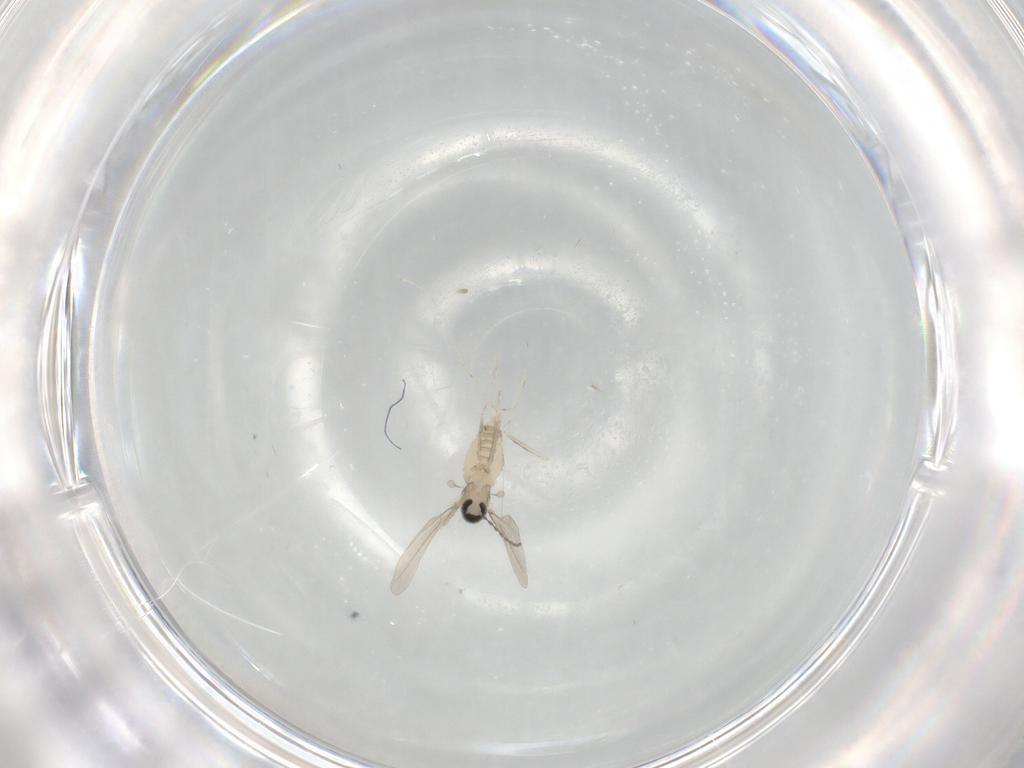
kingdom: Animalia
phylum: Arthropoda
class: Insecta
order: Diptera
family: Cecidomyiidae
